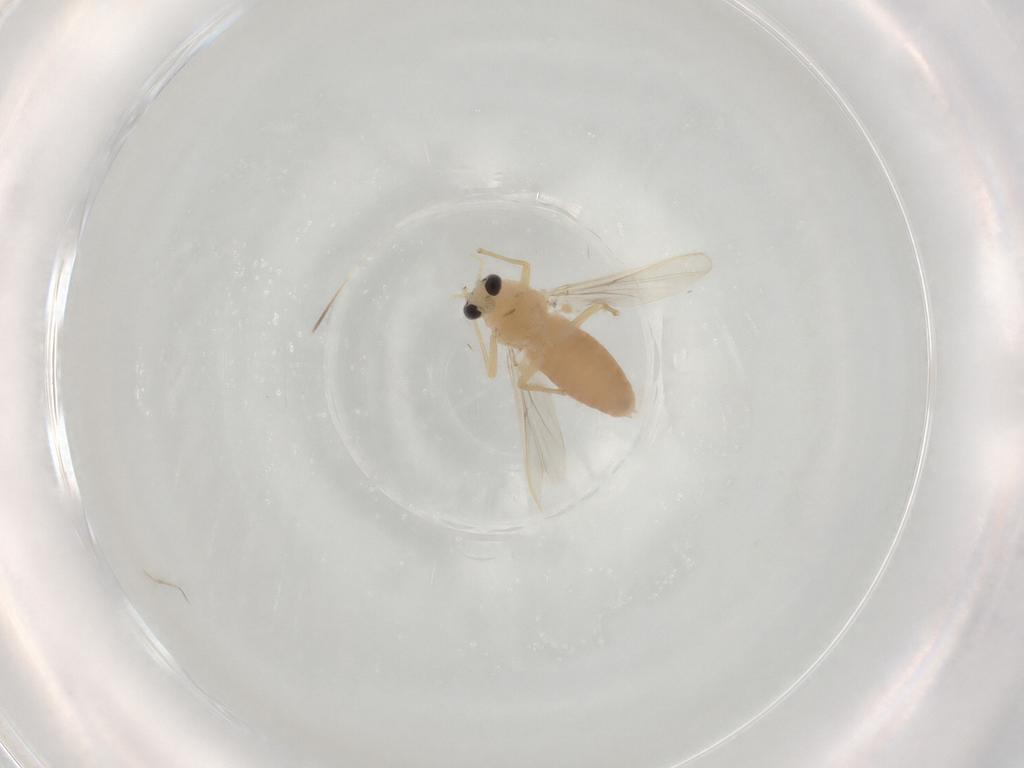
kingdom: Animalia
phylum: Arthropoda
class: Insecta
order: Diptera
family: Chironomidae
